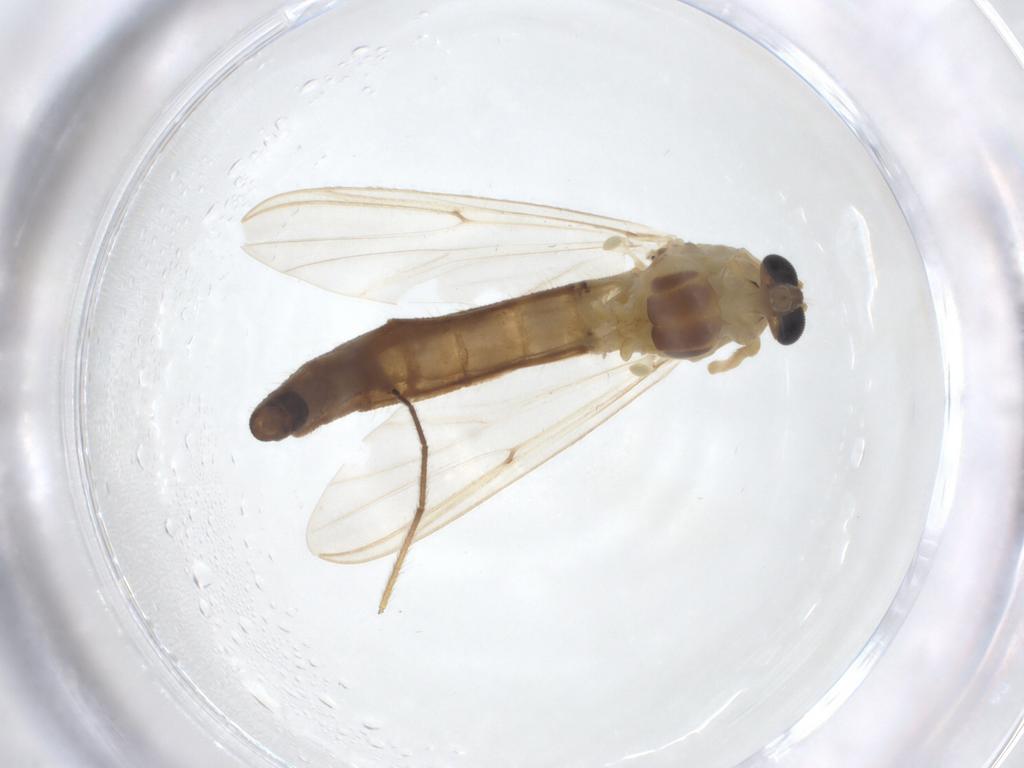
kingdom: Animalia
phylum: Arthropoda
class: Insecta
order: Diptera
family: Chironomidae
